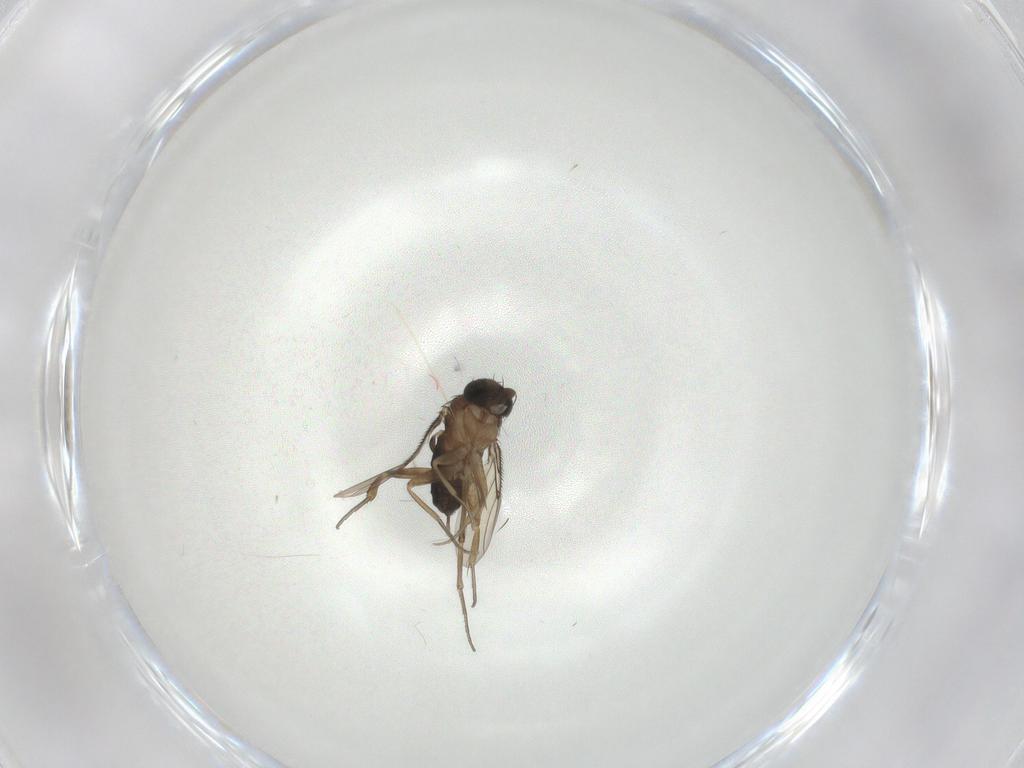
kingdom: Animalia
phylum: Arthropoda
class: Insecta
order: Diptera
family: Phoridae
